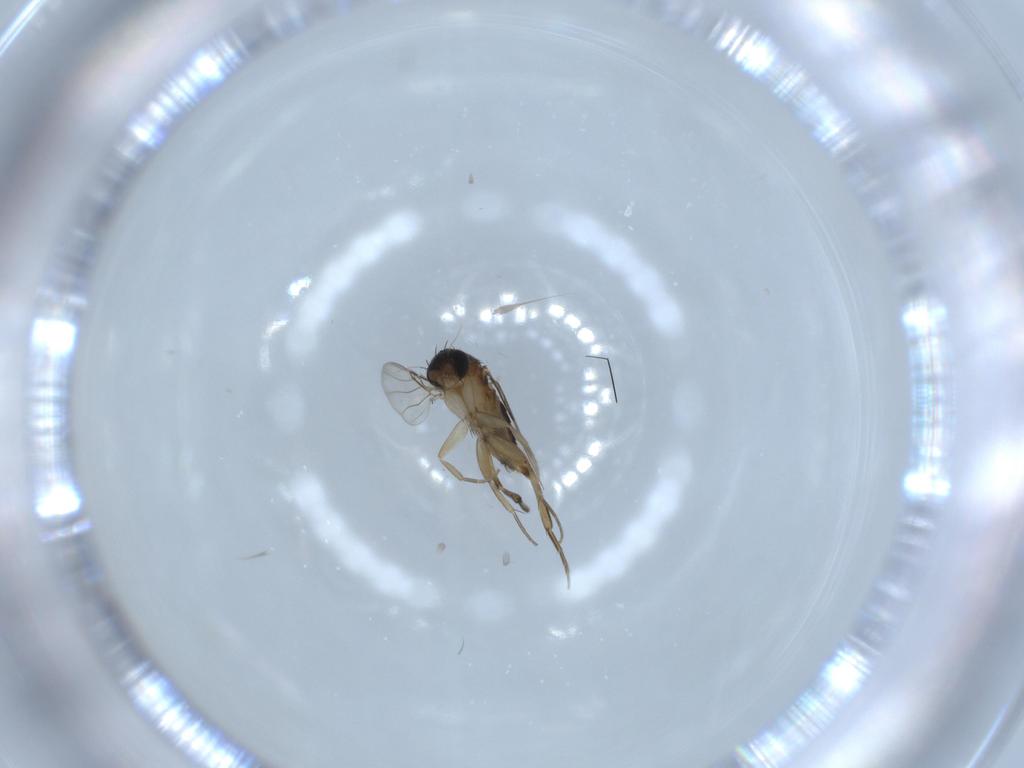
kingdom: Animalia
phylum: Arthropoda
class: Insecta
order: Diptera
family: Phoridae
